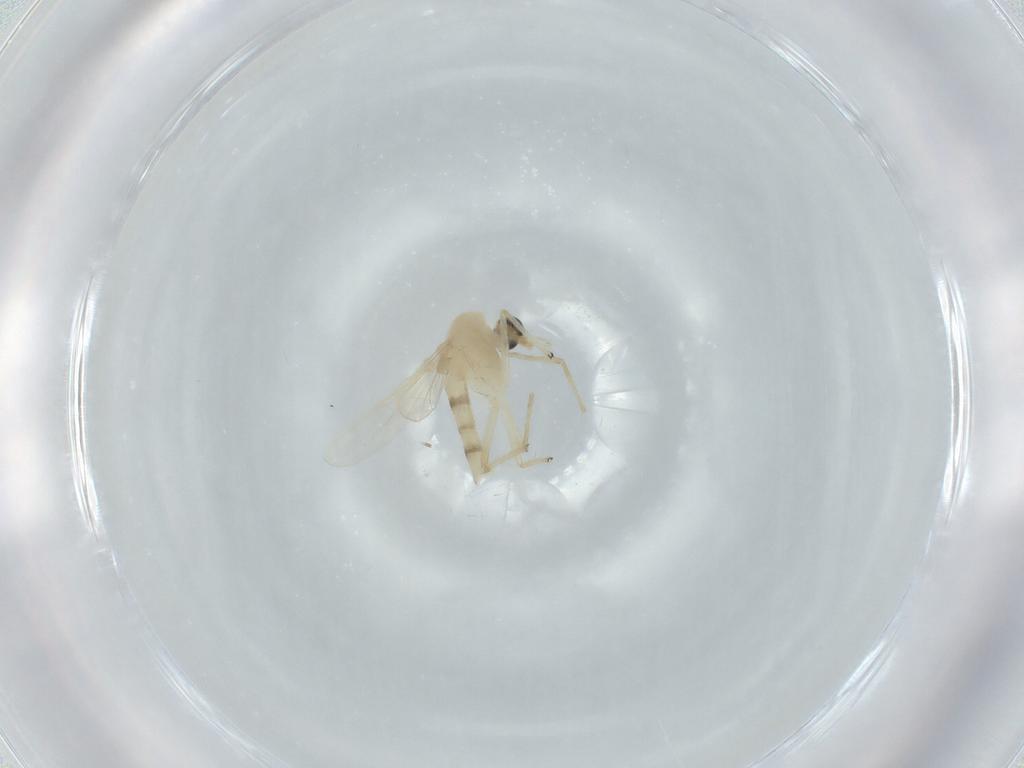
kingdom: Animalia
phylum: Arthropoda
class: Insecta
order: Diptera
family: Chironomidae
